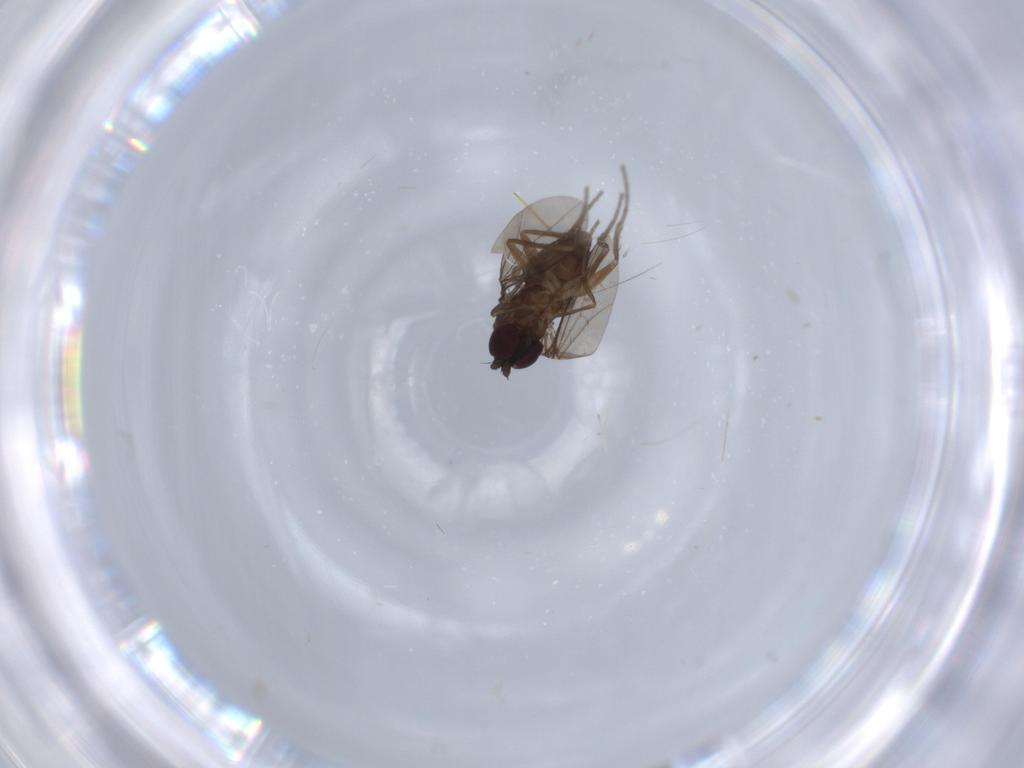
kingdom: Animalia
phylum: Arthropoda
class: Insecta
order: Diptera
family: Dolichopodidae
